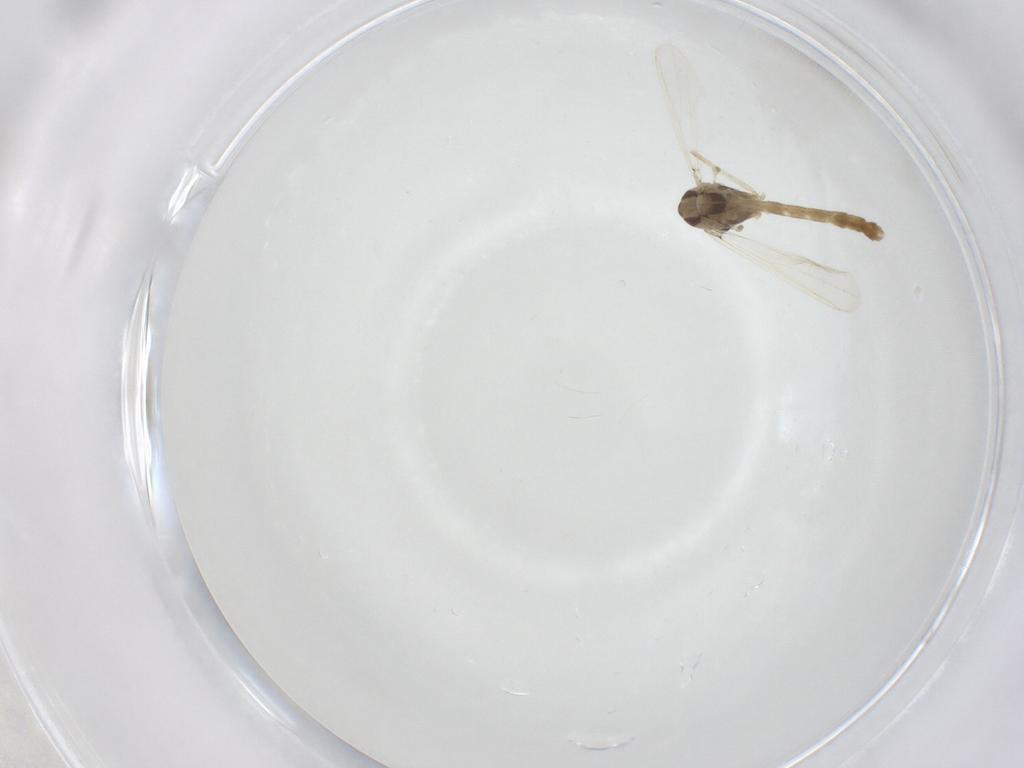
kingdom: Animalia
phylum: Arthropoda
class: Insecta
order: Diptera
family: Chironomidae
